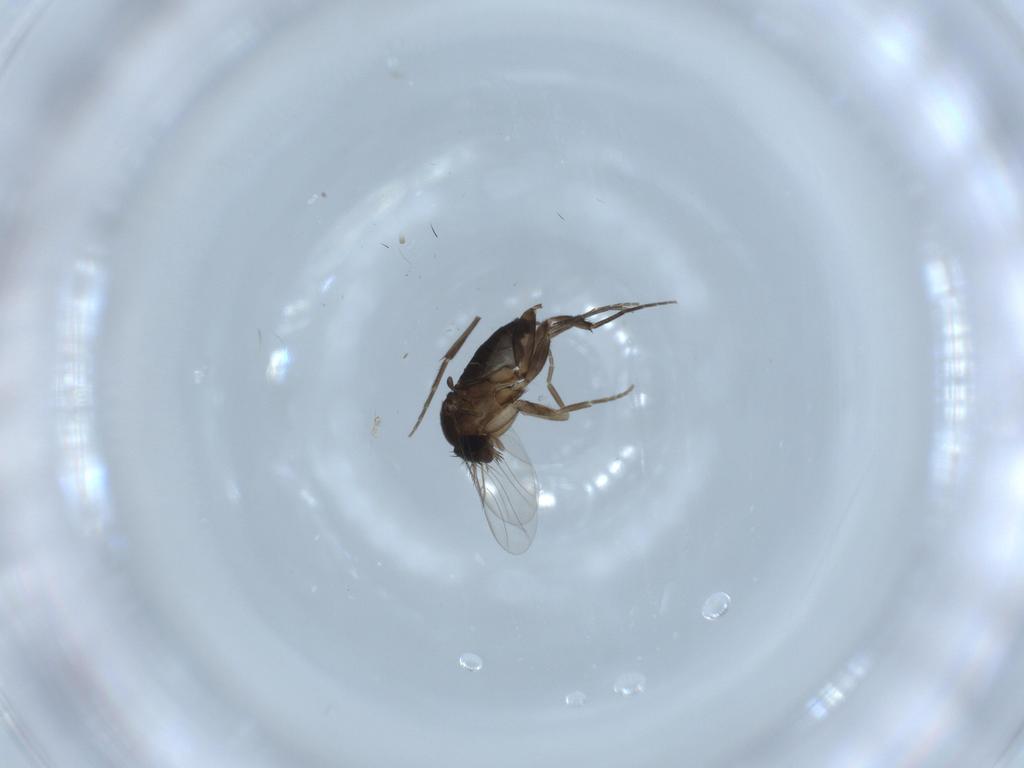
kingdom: Animalia
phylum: Arthropoda
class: Insecta
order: Diptera
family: Phoridae
